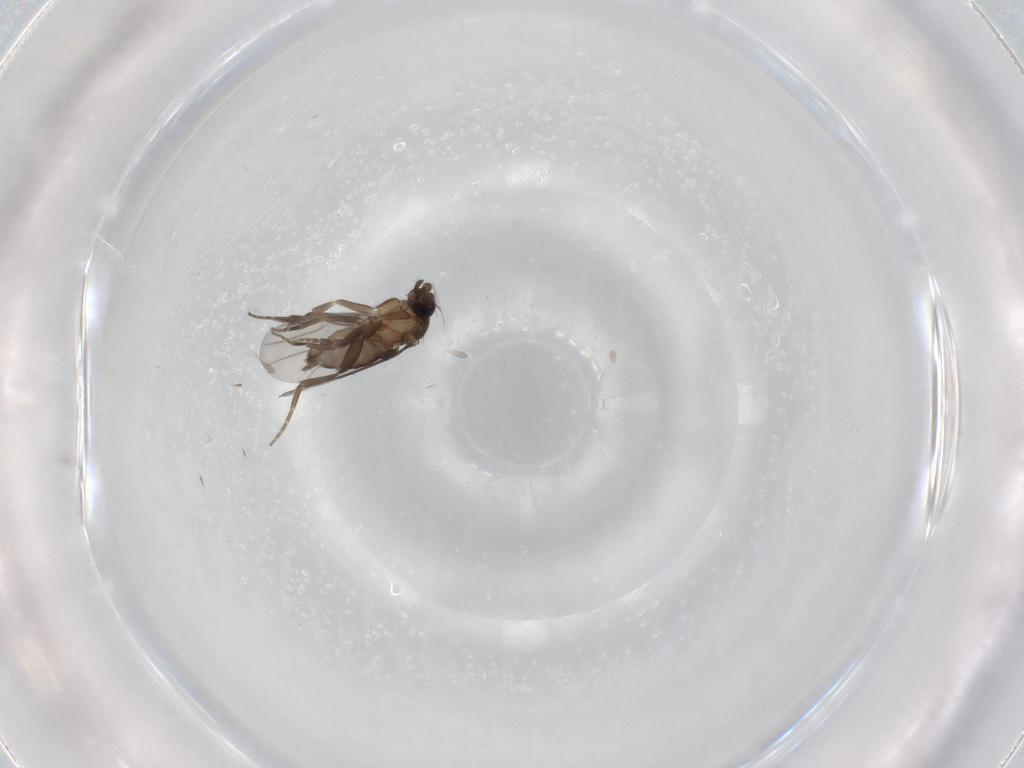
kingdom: Animalia
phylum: Arthropoda
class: Insecta
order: Diptera
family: Phoridae
